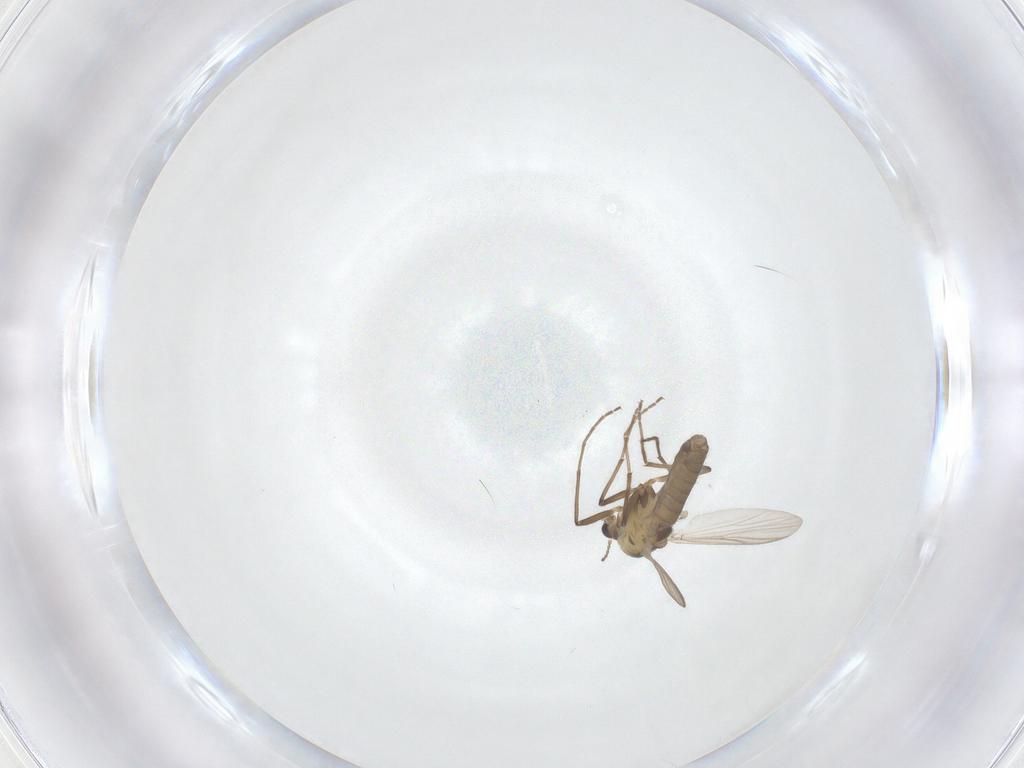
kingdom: Animalia
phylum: Arthropoda
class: Insecta
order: Diptera
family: Chironomidae
